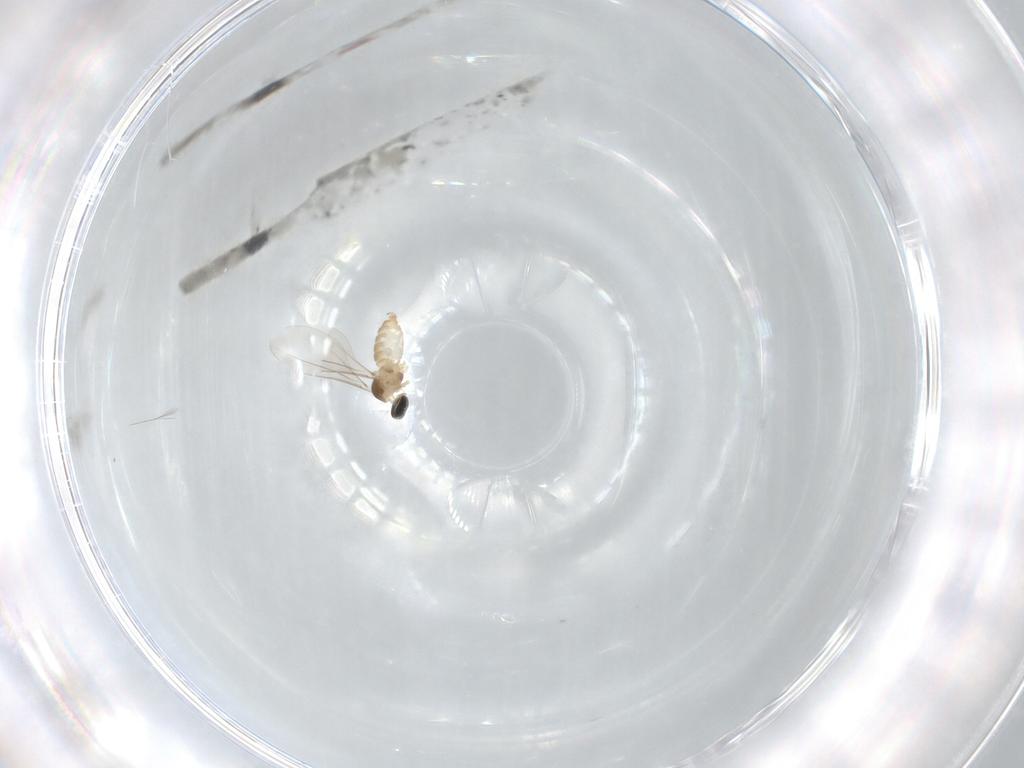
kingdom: Animalia
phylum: Arthropoda
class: Insecta
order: Diptera
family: Cecidomyiidae
